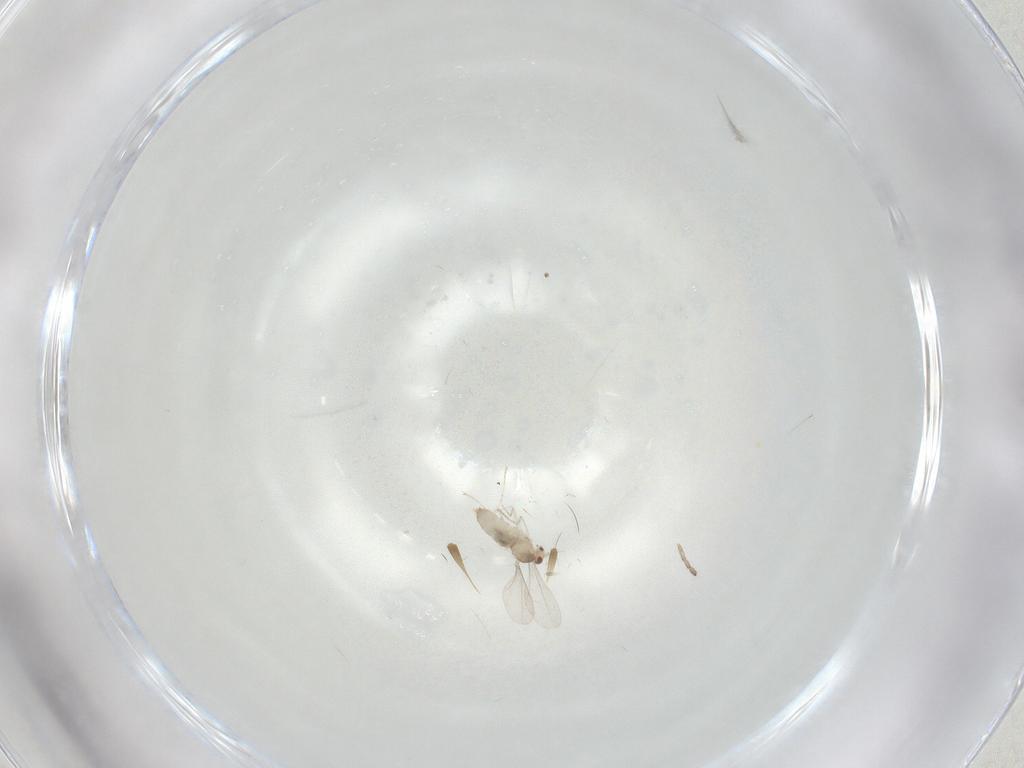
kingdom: Animalia
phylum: Arthropoda
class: Insecta
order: Diptera
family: Cecidomyiidae
